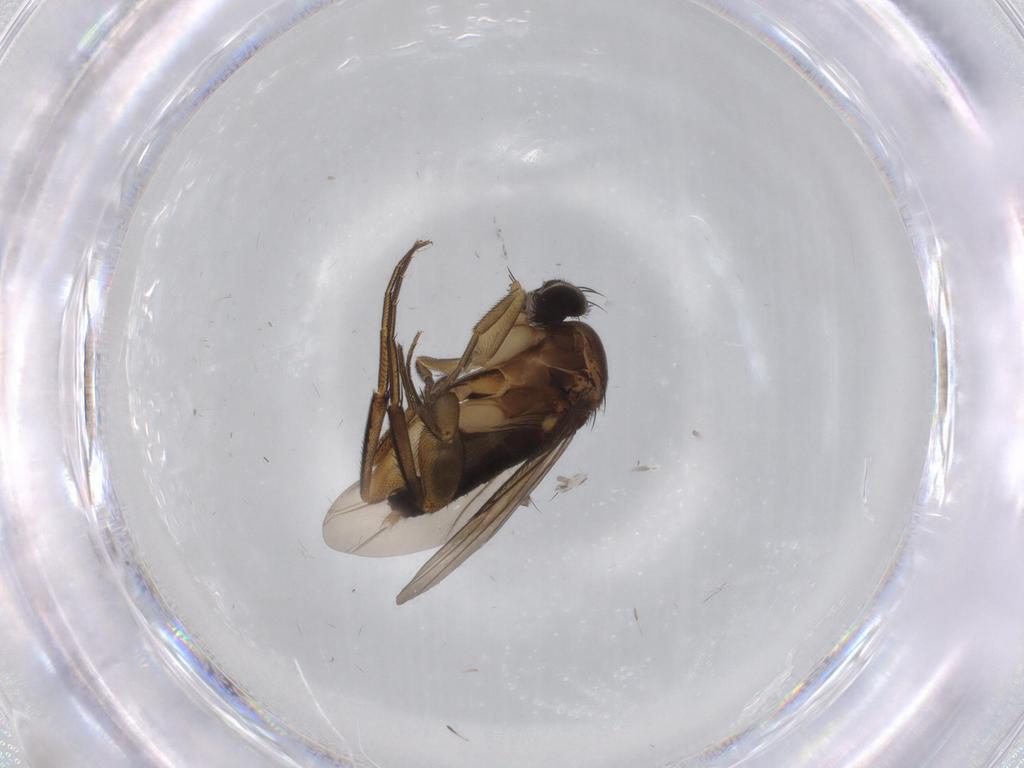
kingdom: Animalia
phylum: Arthropoda
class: Insecta
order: Diptera
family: Phoridae
